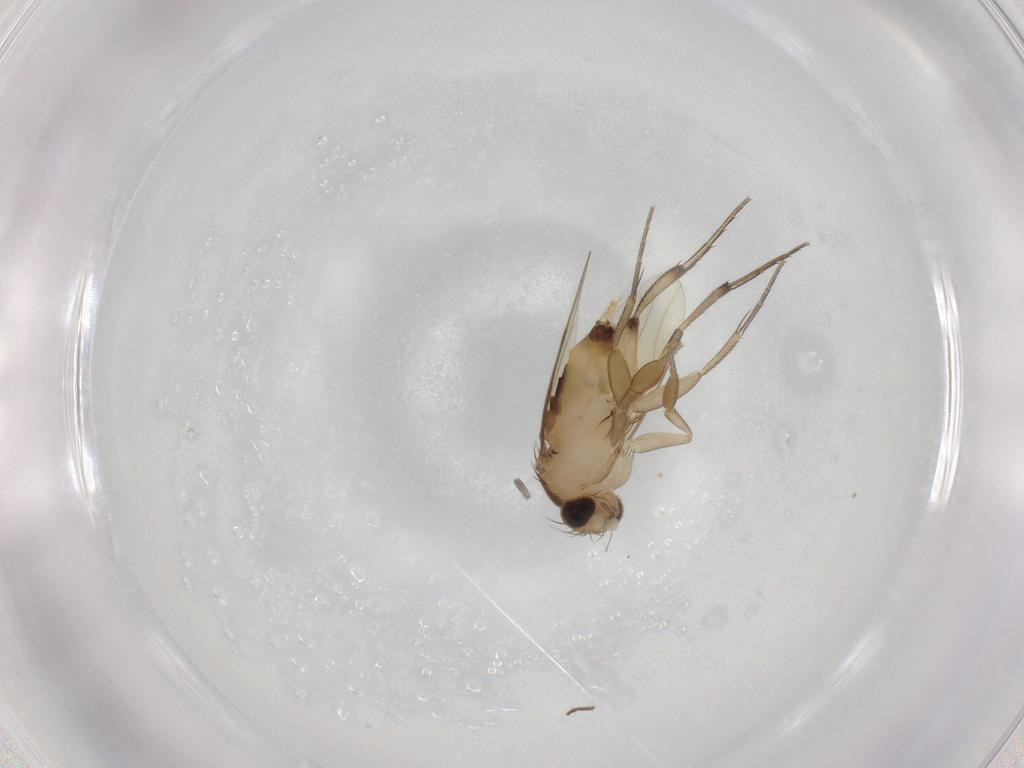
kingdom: Animalia
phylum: Arthropoda
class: Insecta
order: Diptera
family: Phoridae
